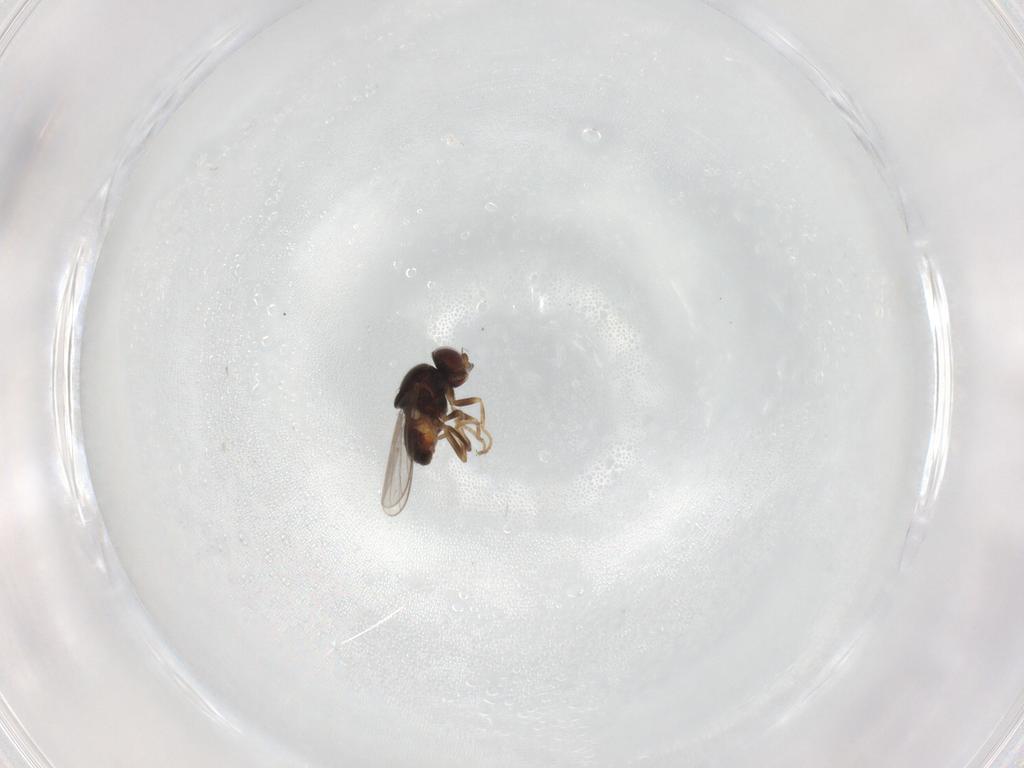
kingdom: Animalia
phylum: Arthropoda
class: Insecta
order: Diptera
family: Chloropidae
